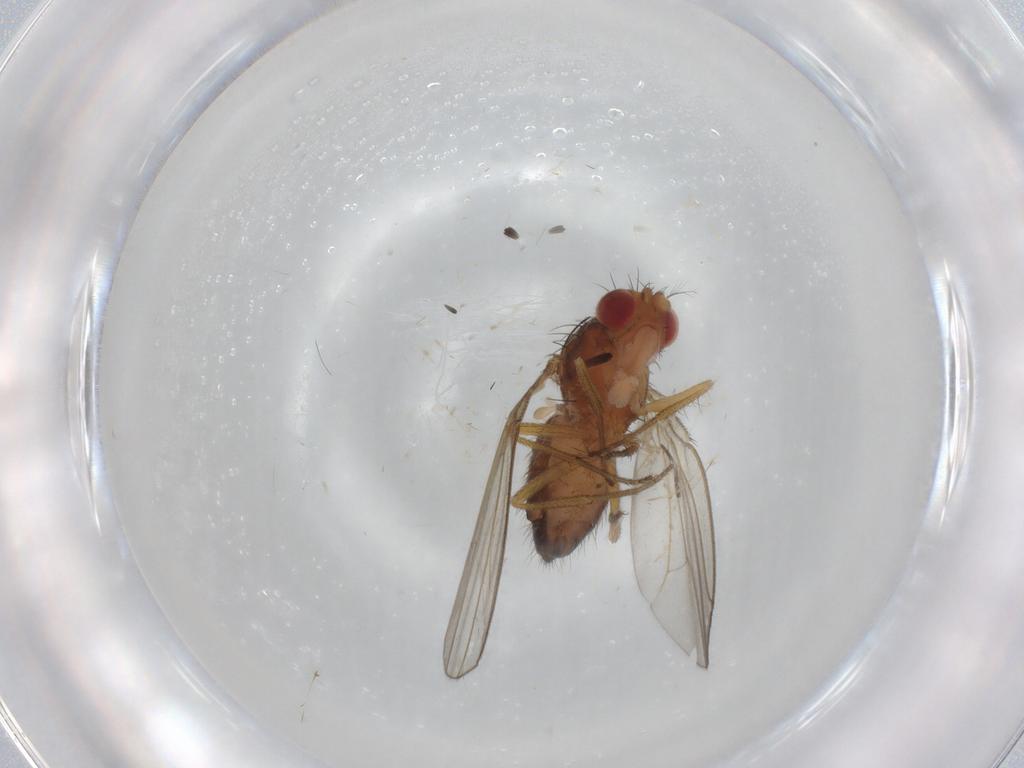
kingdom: Animalia
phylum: Arthropoda
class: Insecta
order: Diptera
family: Drosophilidae
